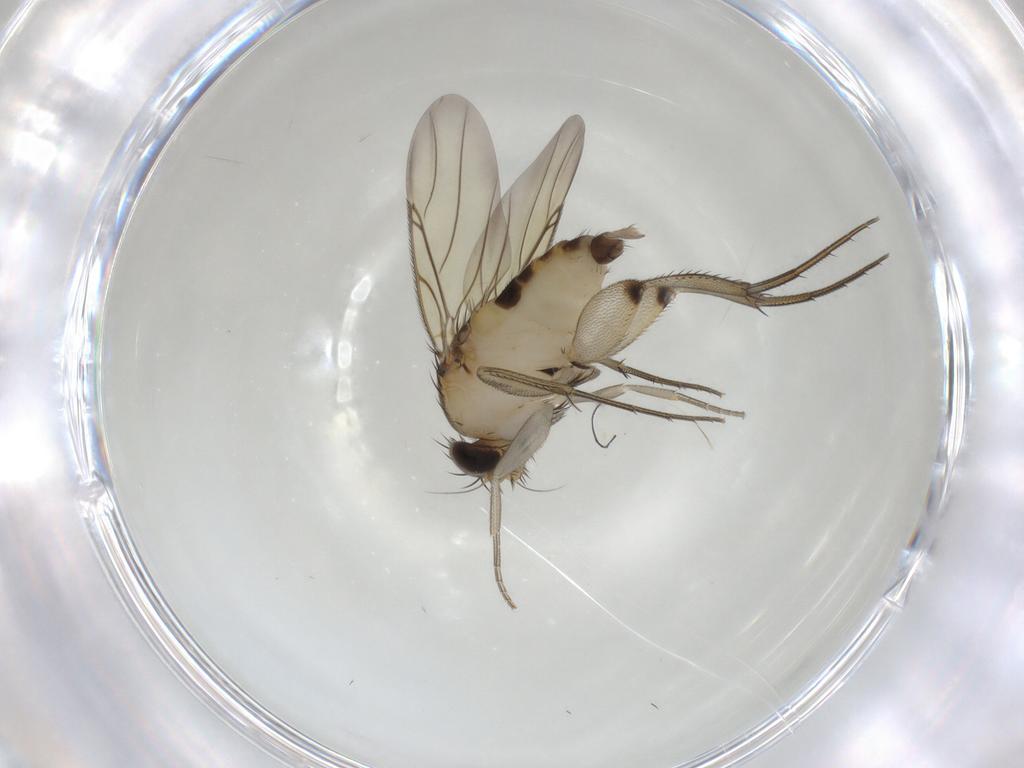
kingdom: Animalia
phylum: Arthropoda
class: Insecta
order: Diptera
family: Phoridae
